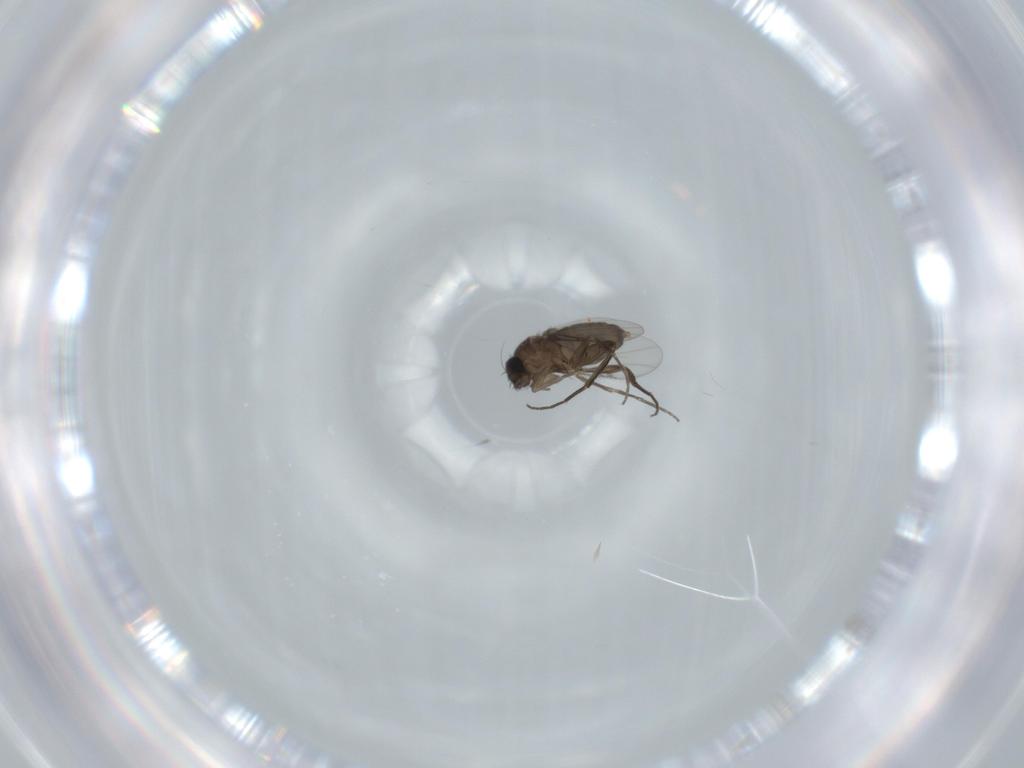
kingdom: Animalia
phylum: Arthropoda
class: Insecta
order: Diptera
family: Phoridae
